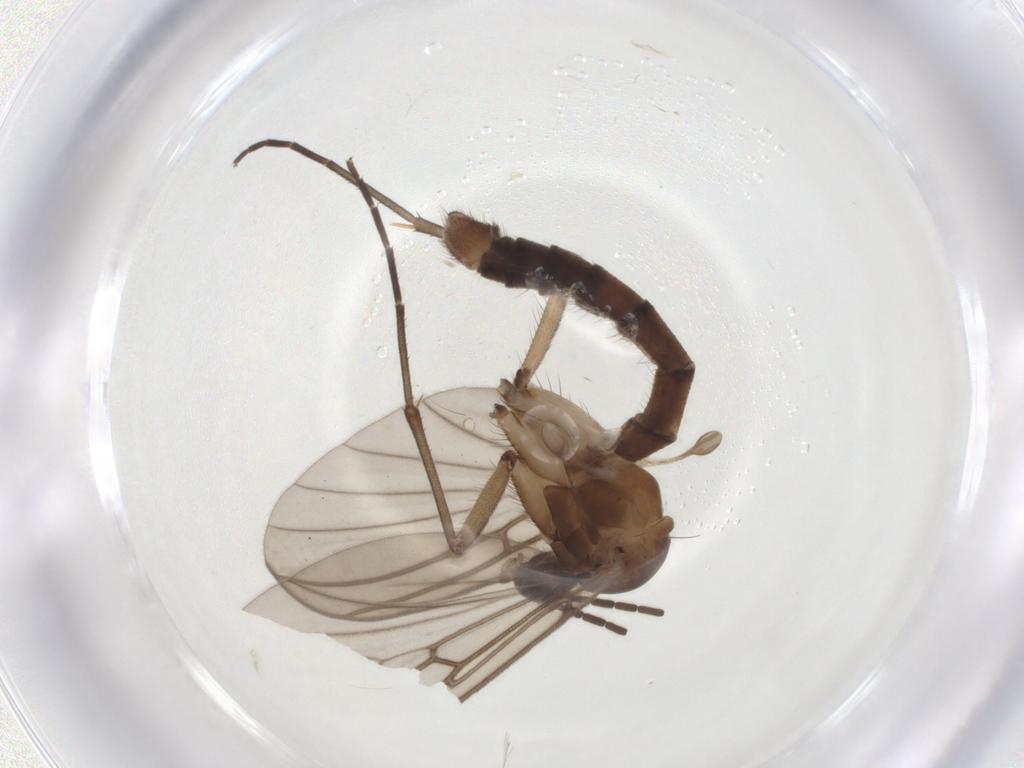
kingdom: Animalia
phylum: Arthropoda
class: Insecta
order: Diptera
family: Mycetophilidae
